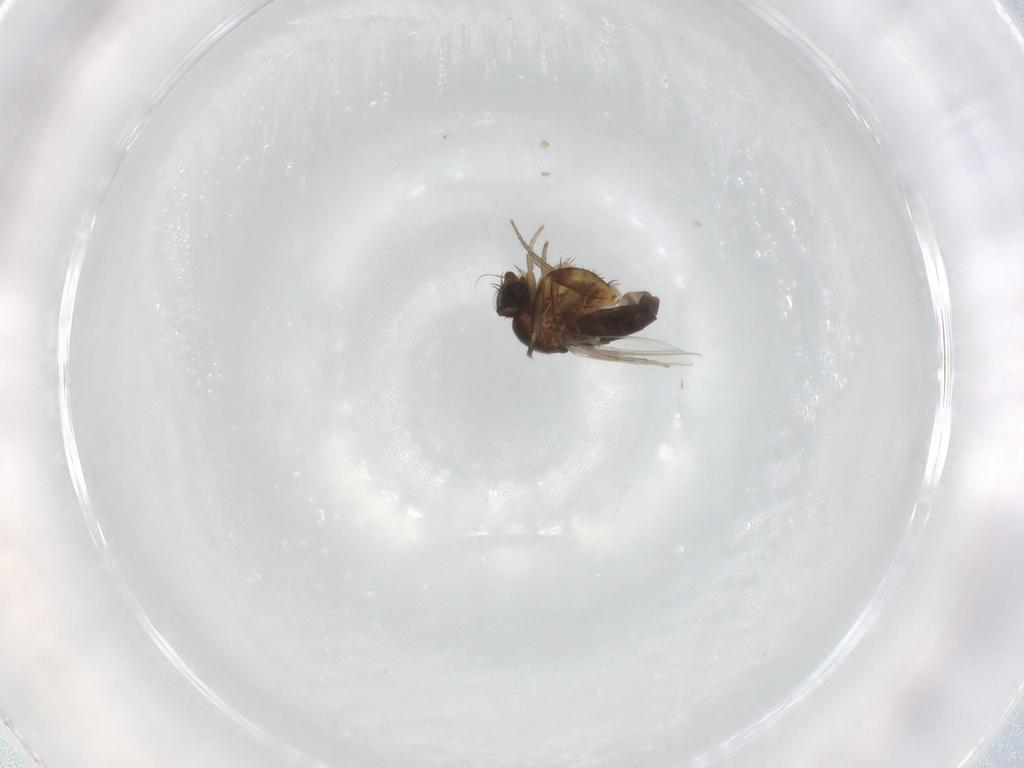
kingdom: Animalia
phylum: Arthropoda
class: Insecta
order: Diptera
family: Phoridae
